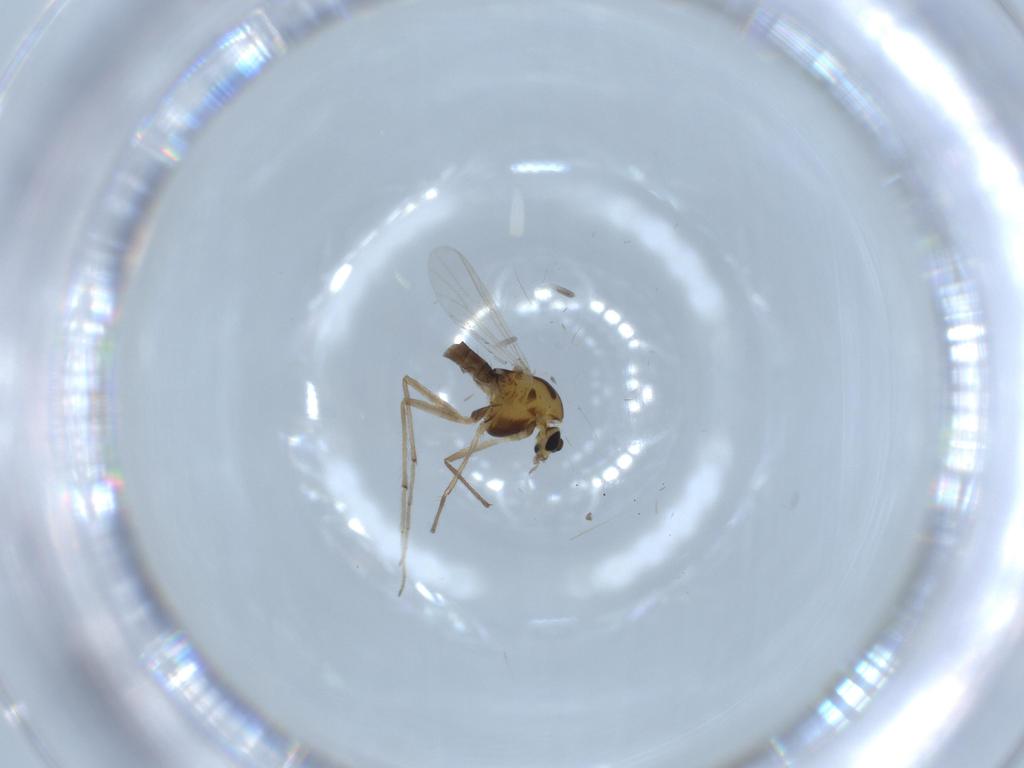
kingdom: Animalia
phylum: Arthropoda
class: Insecta
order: Diptera
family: Chironomidae
